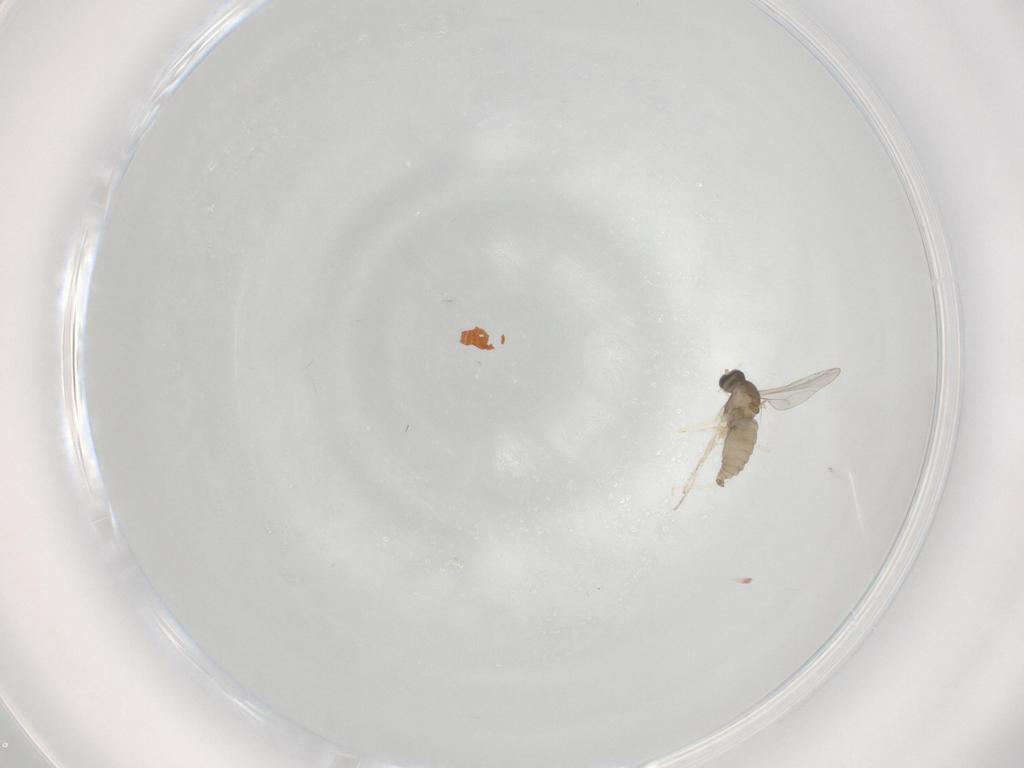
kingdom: Animalia
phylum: Arthropoda
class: Insecta
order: Diptera
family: Cecidomyiidae
